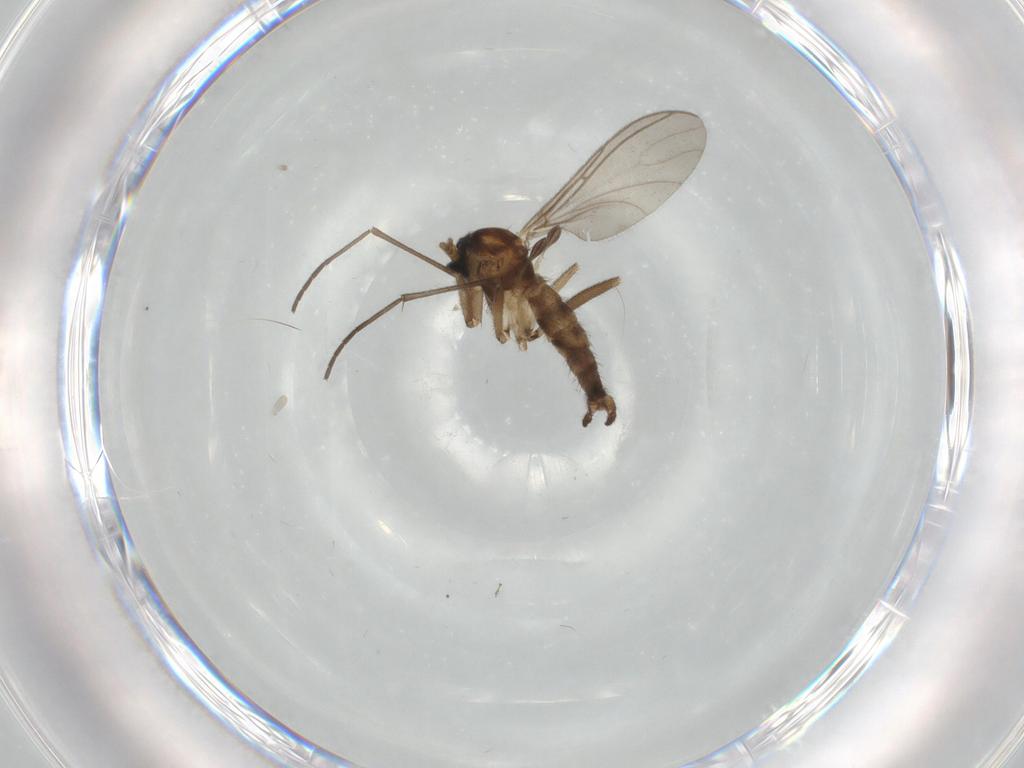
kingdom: Animalia
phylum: Arthropoda
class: Insecta
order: Diptera
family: Sciaridae
